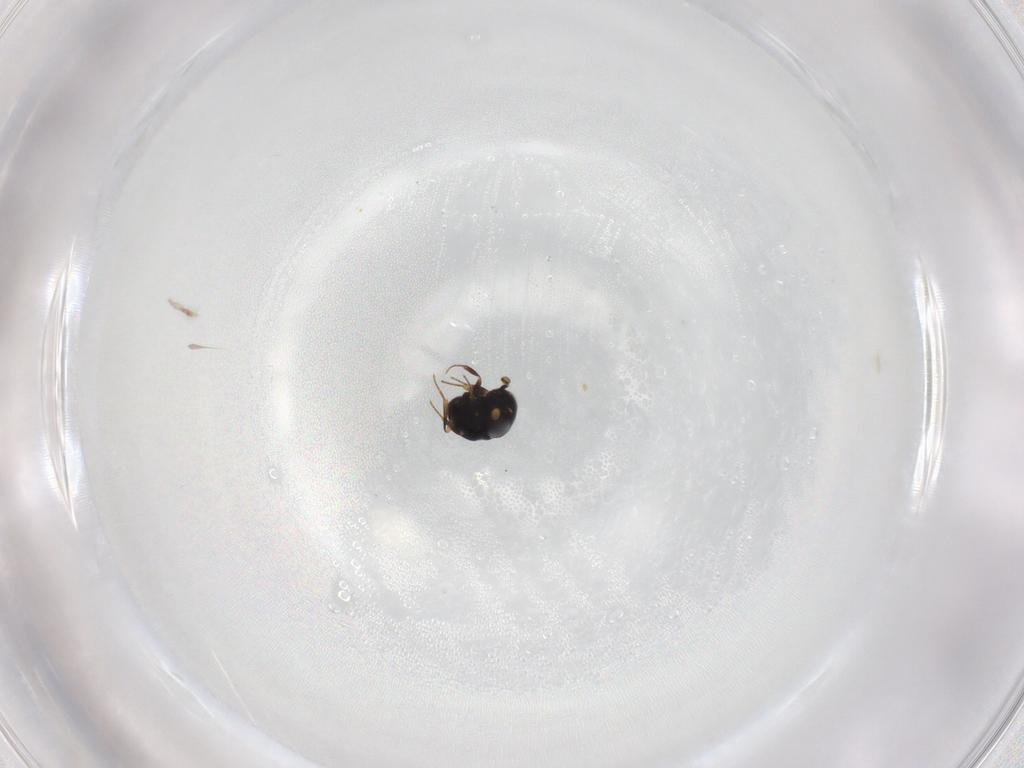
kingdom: Animalia
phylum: Arthropoda
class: Insecta
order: Hymenoptera
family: Scelionidae
